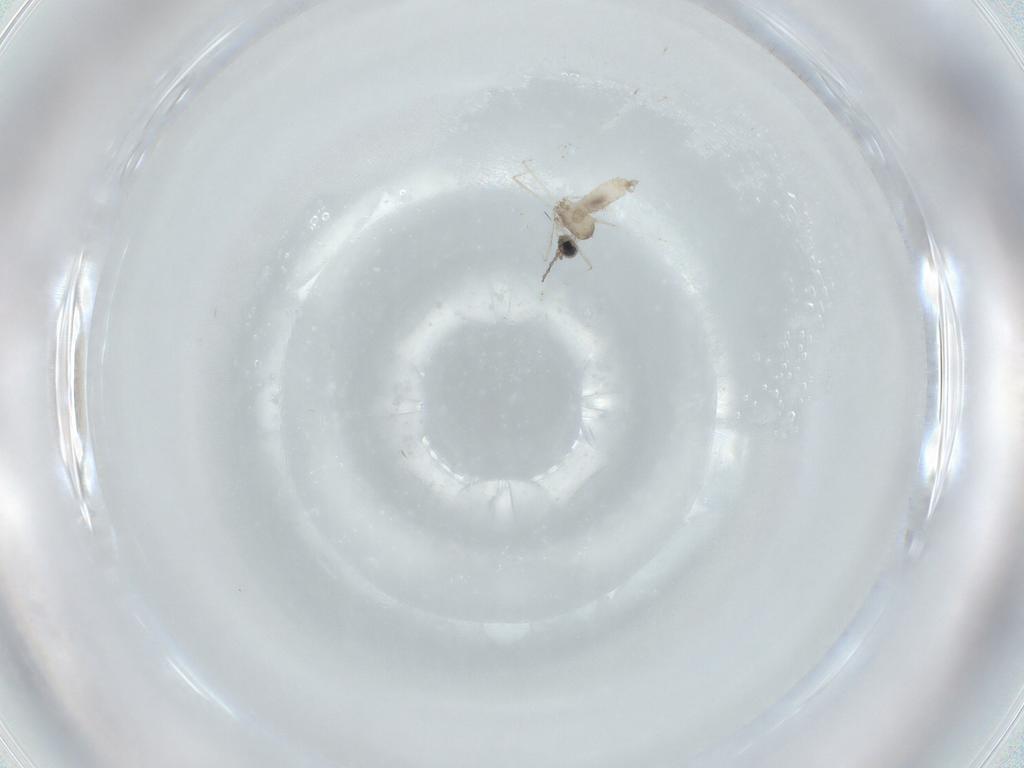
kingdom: Animalia
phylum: Arthropoda
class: Insecta
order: Diptera
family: Cecidomyiidae
